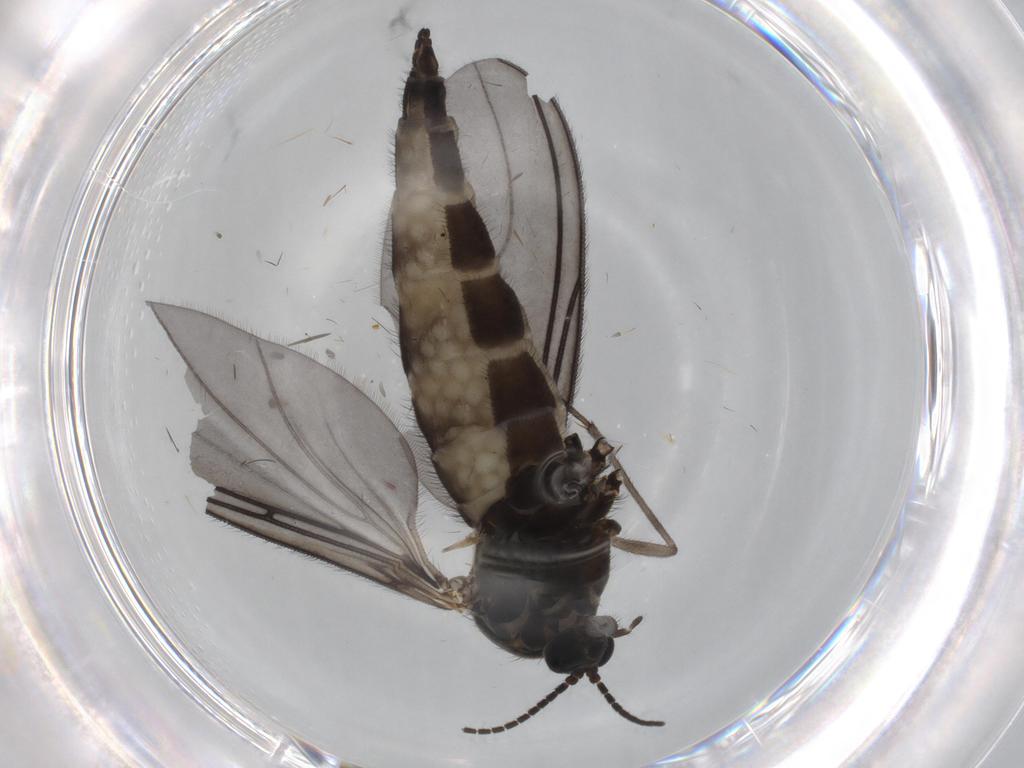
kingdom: Animalia
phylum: Arthropoda
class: Insecta
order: Diptera
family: Sciaridae
